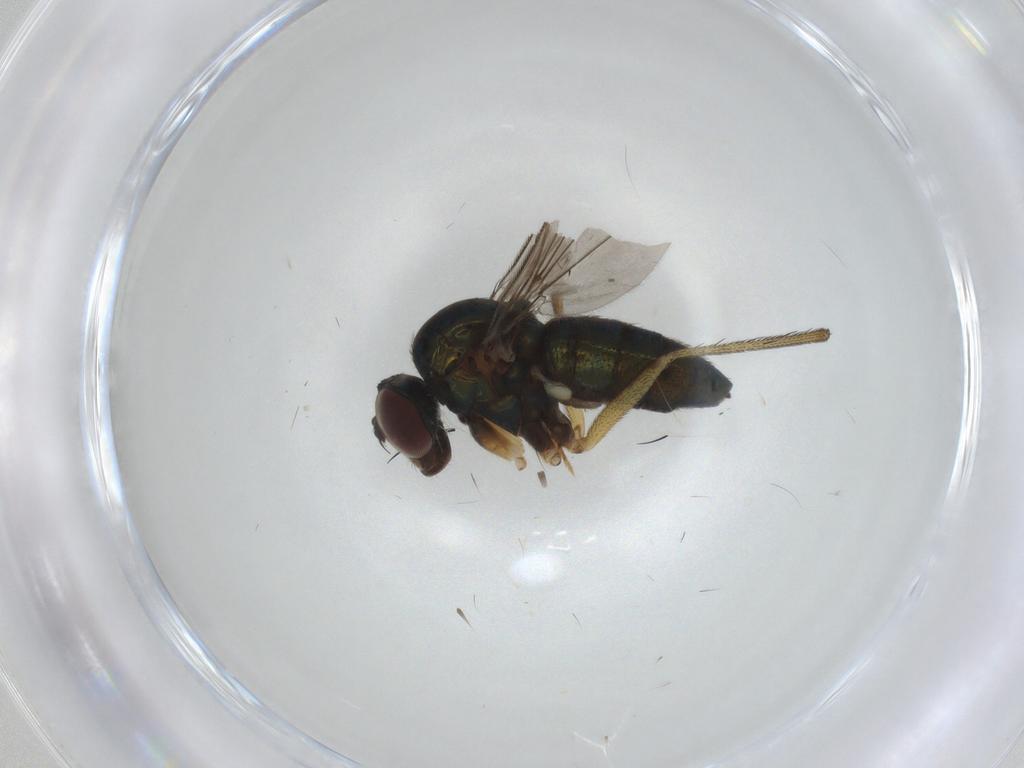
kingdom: Animalia
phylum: Arthropoda
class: Insecta
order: Diptera
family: Dolichopodidae
